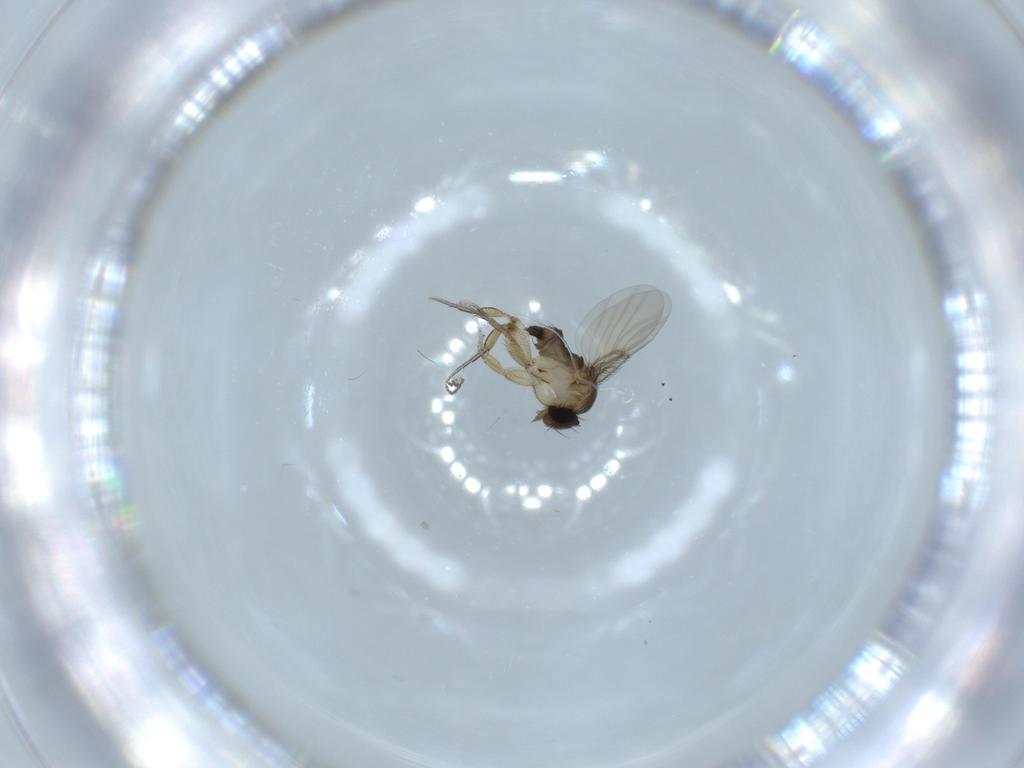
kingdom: Animalia
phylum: Arthropoda
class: Insecta
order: Diptera
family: Phoridae
